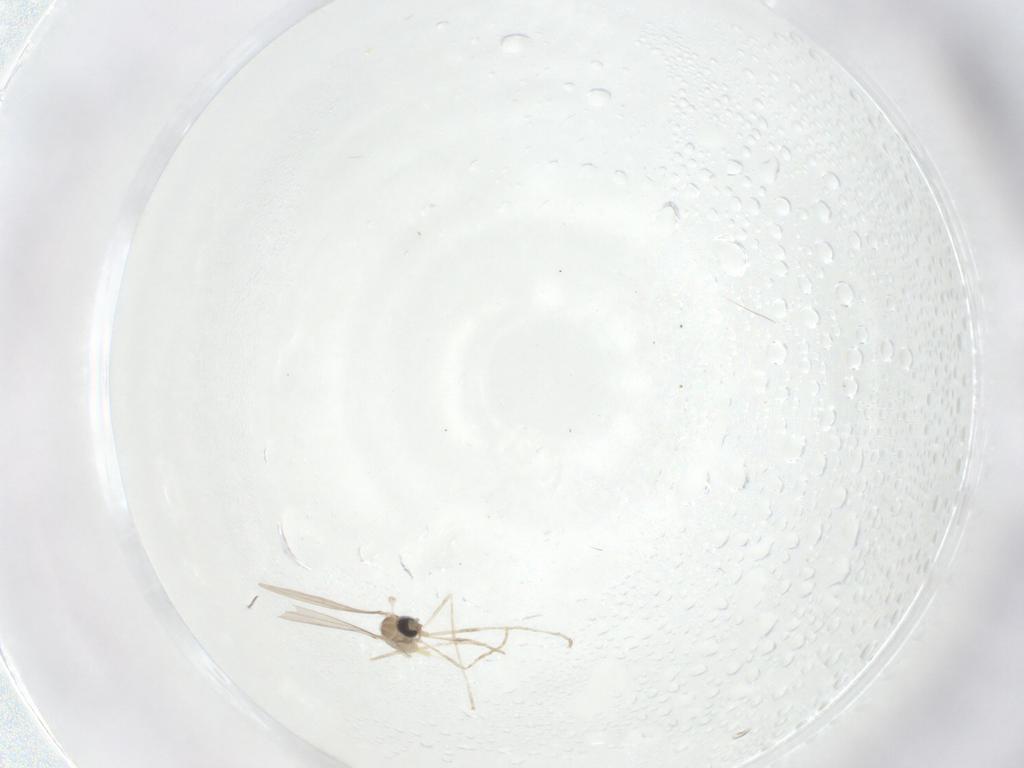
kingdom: Animalia
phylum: Arthropoda
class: Insecta
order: Diptera
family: Cecidomyiidae
